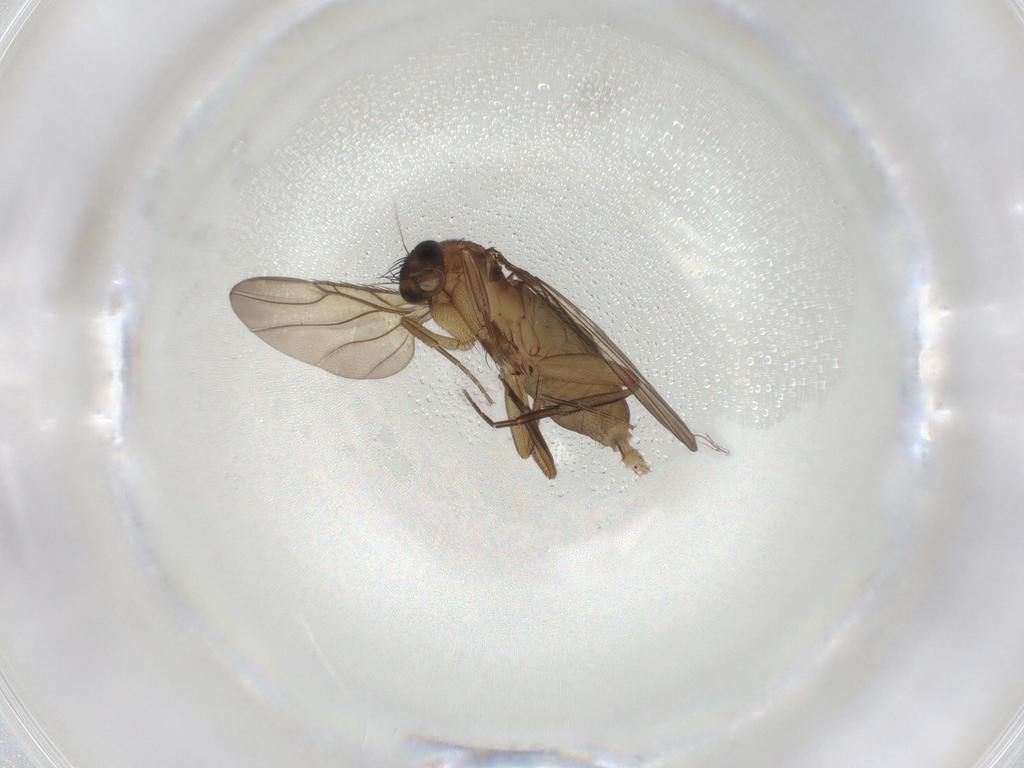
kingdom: Animalia
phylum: Arthropoda
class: Insecta
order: Diptera
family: Phoridae
